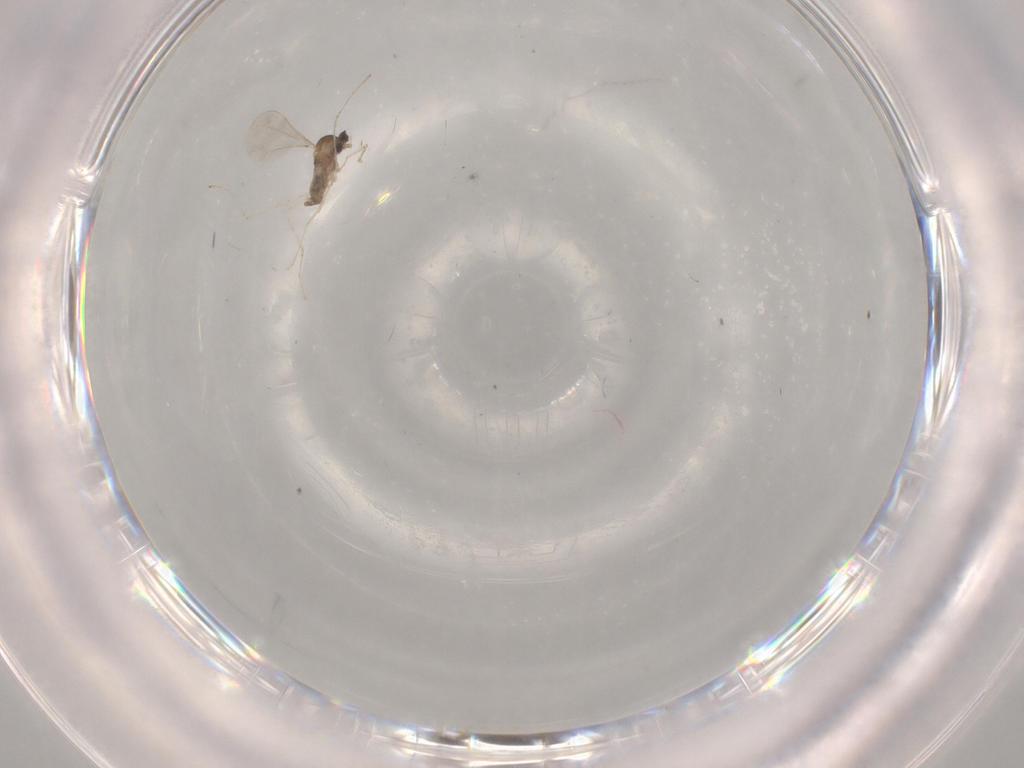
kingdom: Animalia
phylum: Arthropoda
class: Insecta
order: Diptera
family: Cecidomyiidae
